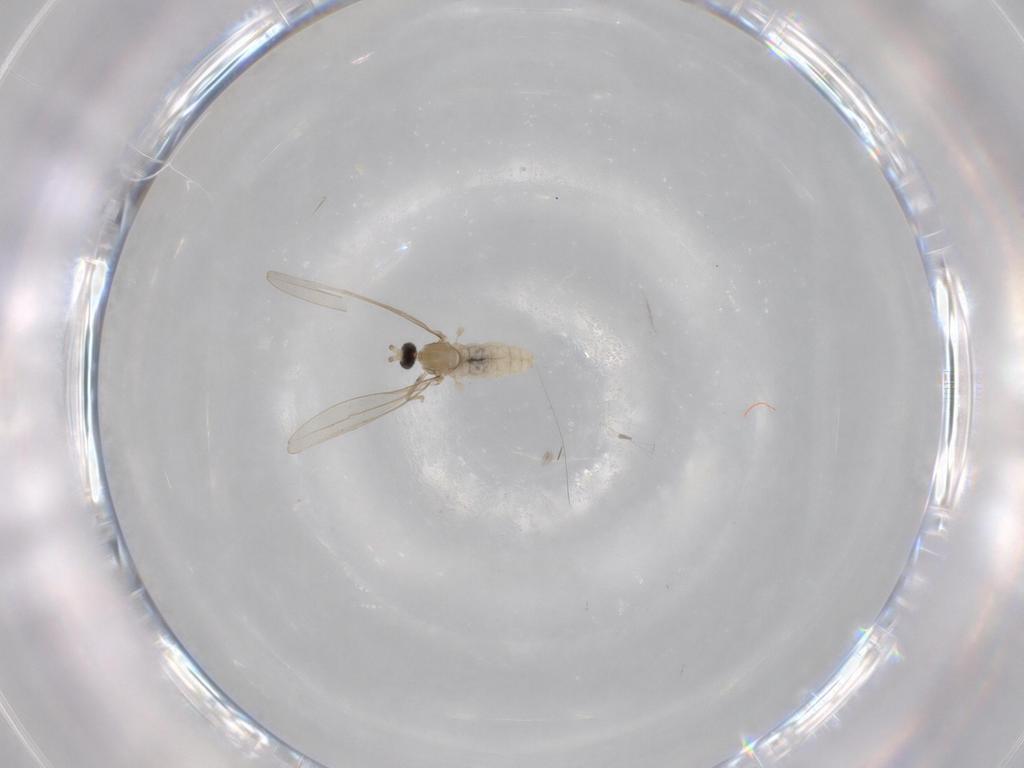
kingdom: Animalia
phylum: Arthropoda
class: Insecta
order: Diptera
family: Cecidomyiidae
